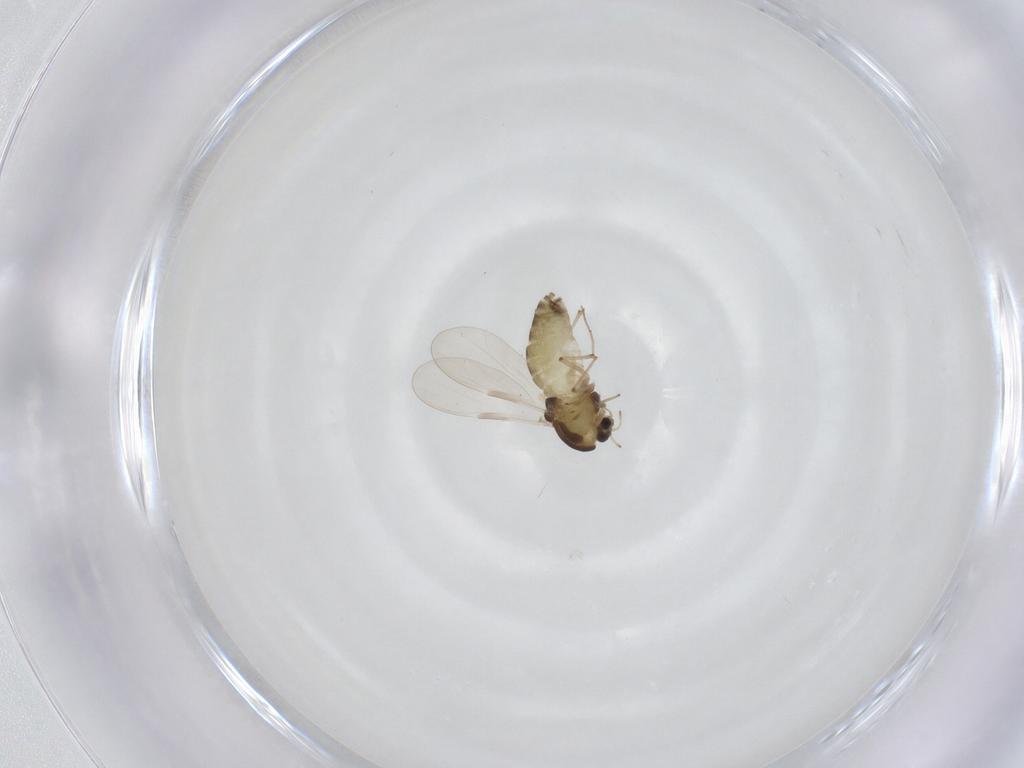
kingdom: Animalia
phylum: Arthropoda
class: Insecta
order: Diptera
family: Chironomidae
